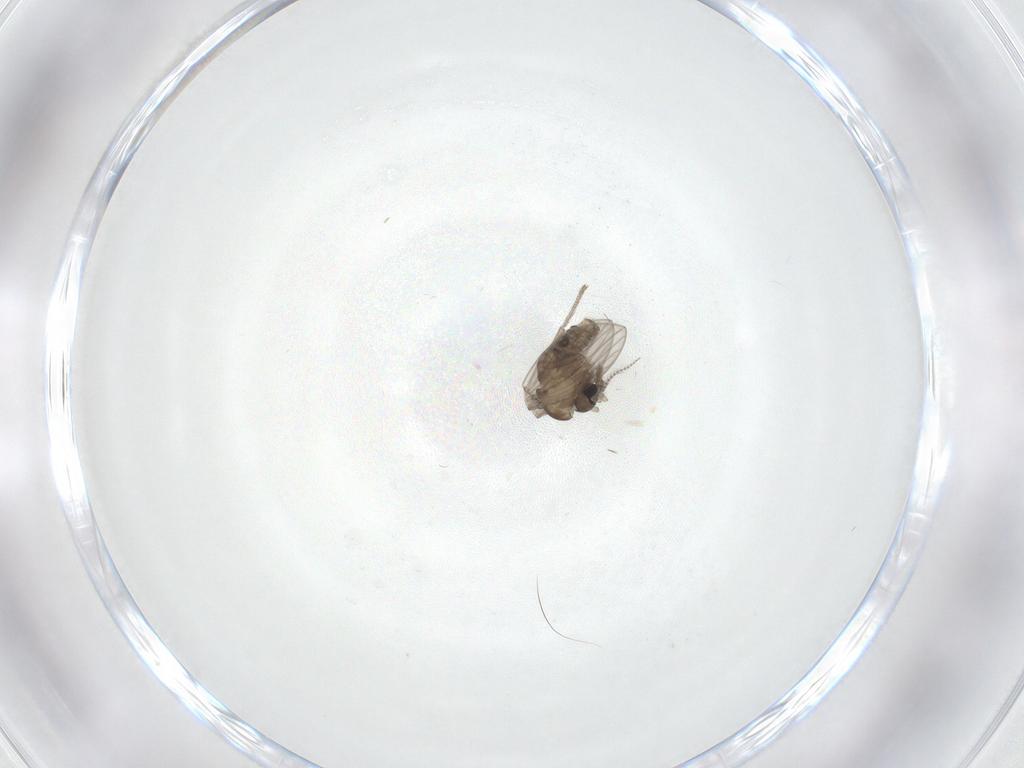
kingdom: Animalia
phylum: Arthropoda
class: Insecta
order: Diptera
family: Psychodidae
